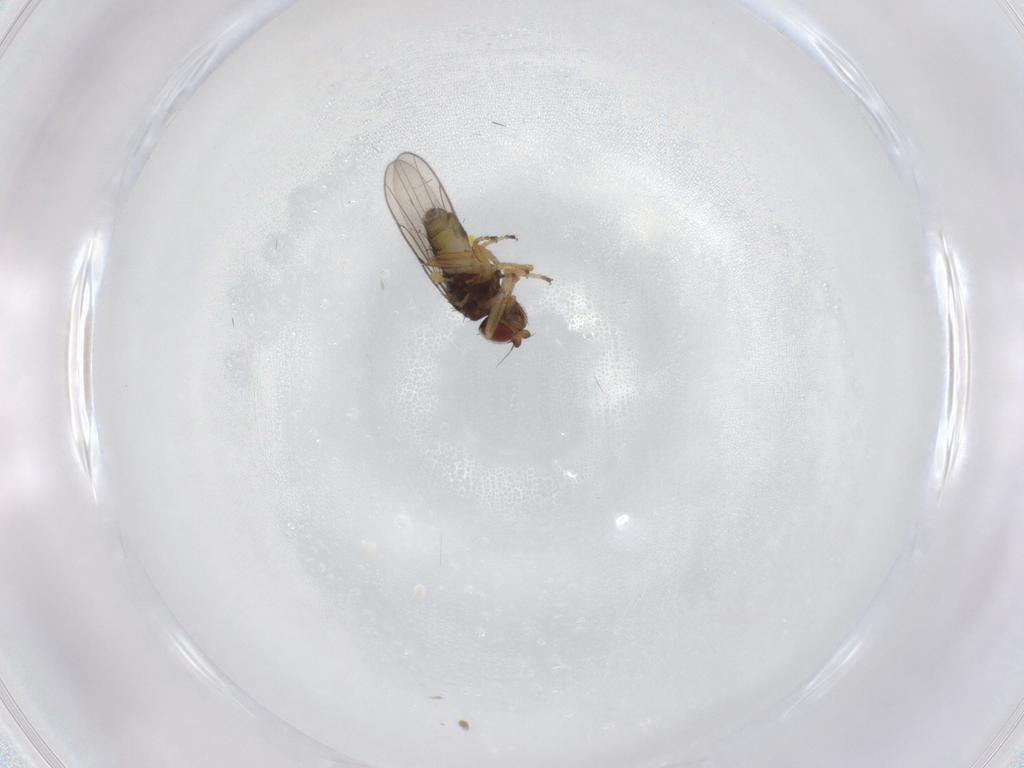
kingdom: Animalia
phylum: Arthropoda
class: Insecta
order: Diptera
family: Chloropidae
